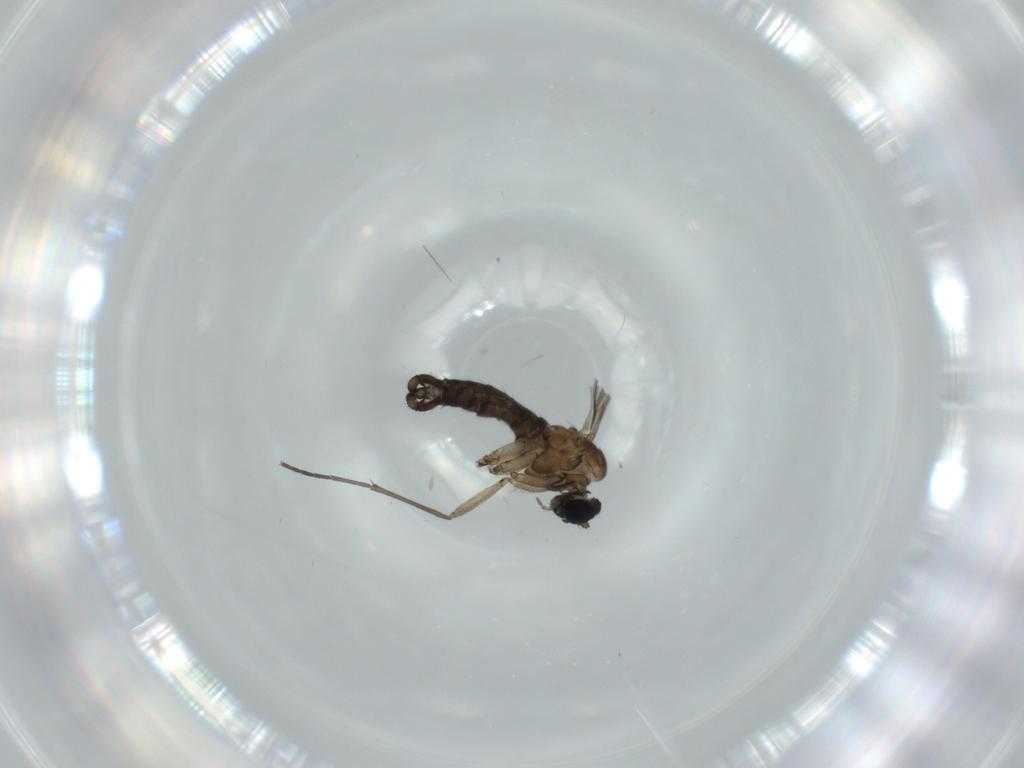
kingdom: Animalia
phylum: Arthropoda
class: Insecta
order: Diptera
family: Sciaridae
